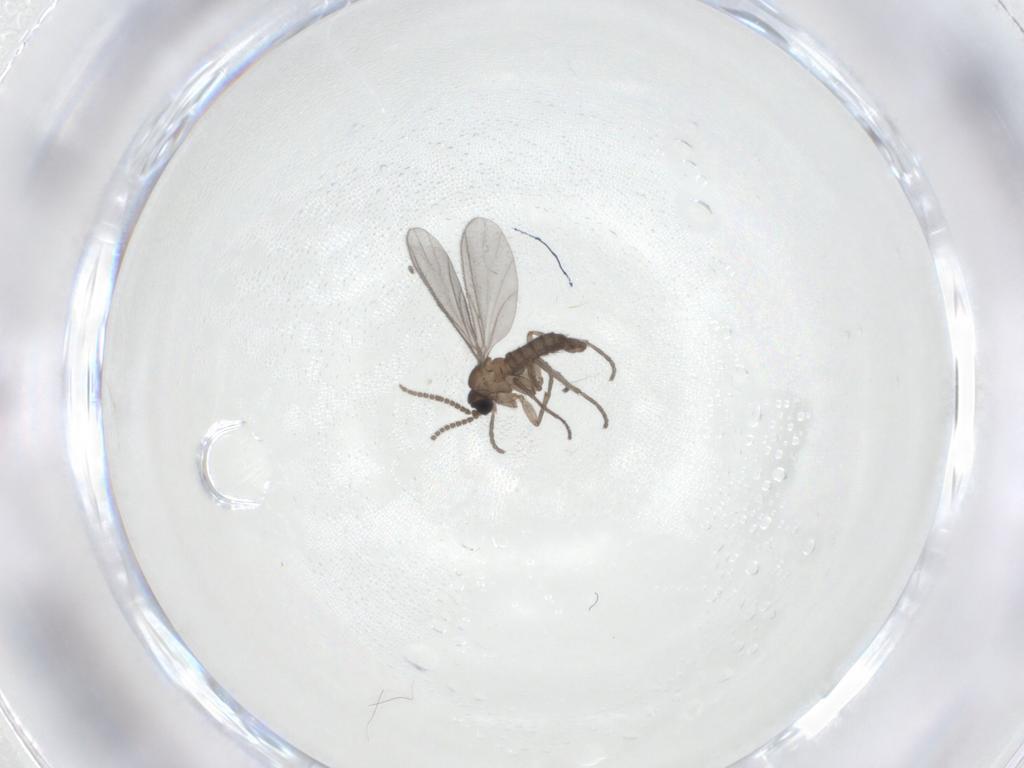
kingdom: Animalia
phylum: Arthropoda
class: Insecta
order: Diptera
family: Sciaridae
